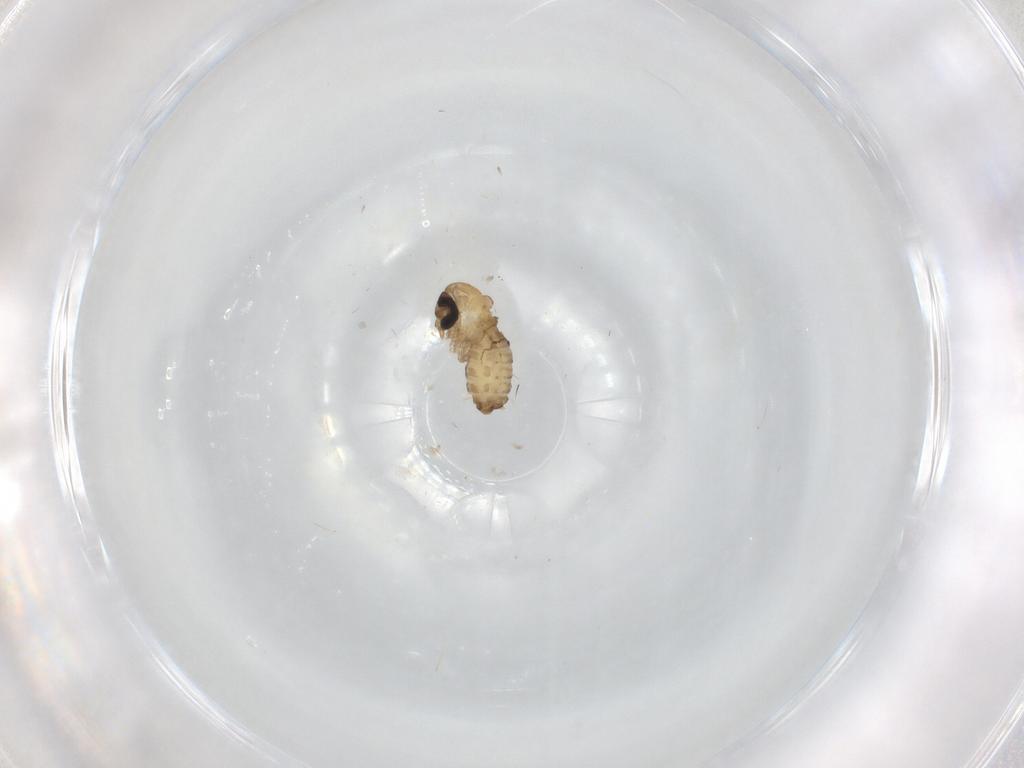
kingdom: Animalia
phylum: Arthropoda
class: Insecta
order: Diptera
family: Psychodidae
